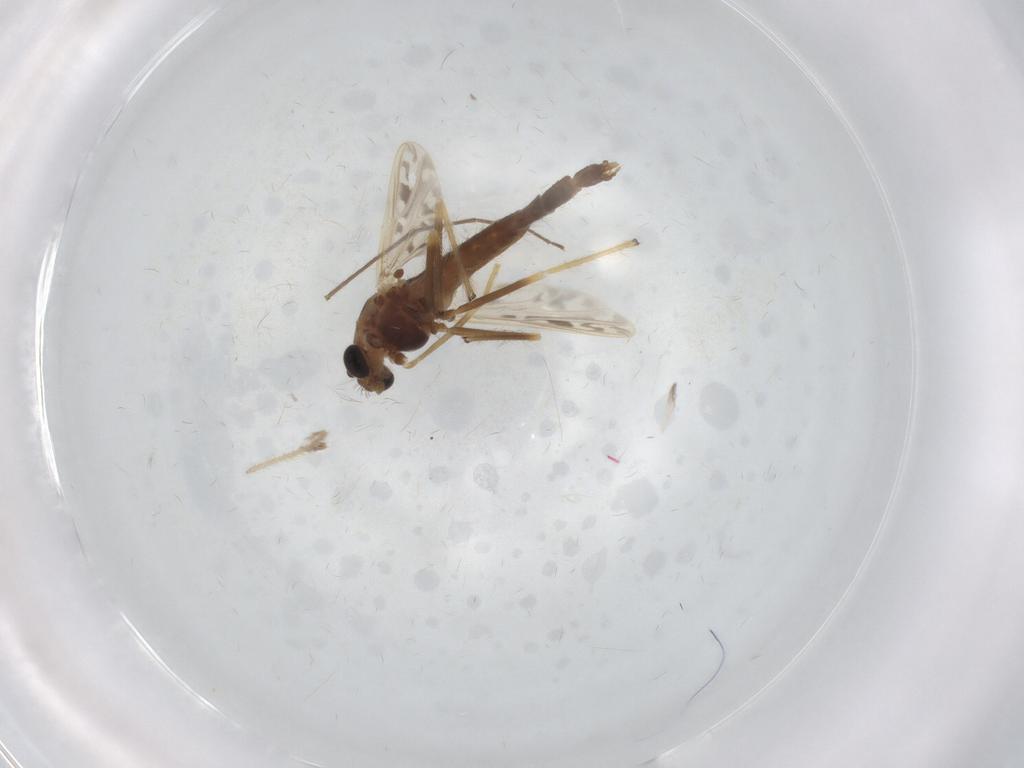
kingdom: Animalia
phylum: Arthropoda
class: Insecta
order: Diptera
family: Chironomidae
